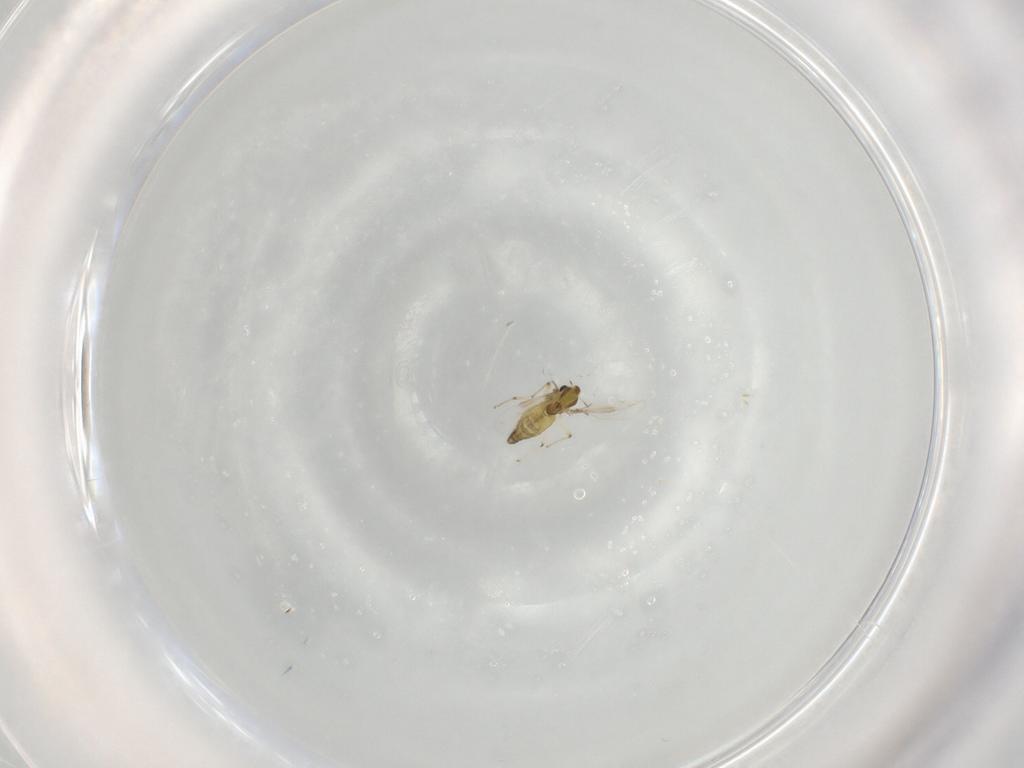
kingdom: Animalia
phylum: Arthropoda
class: Insecta
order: Diptera
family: Chironomidae
